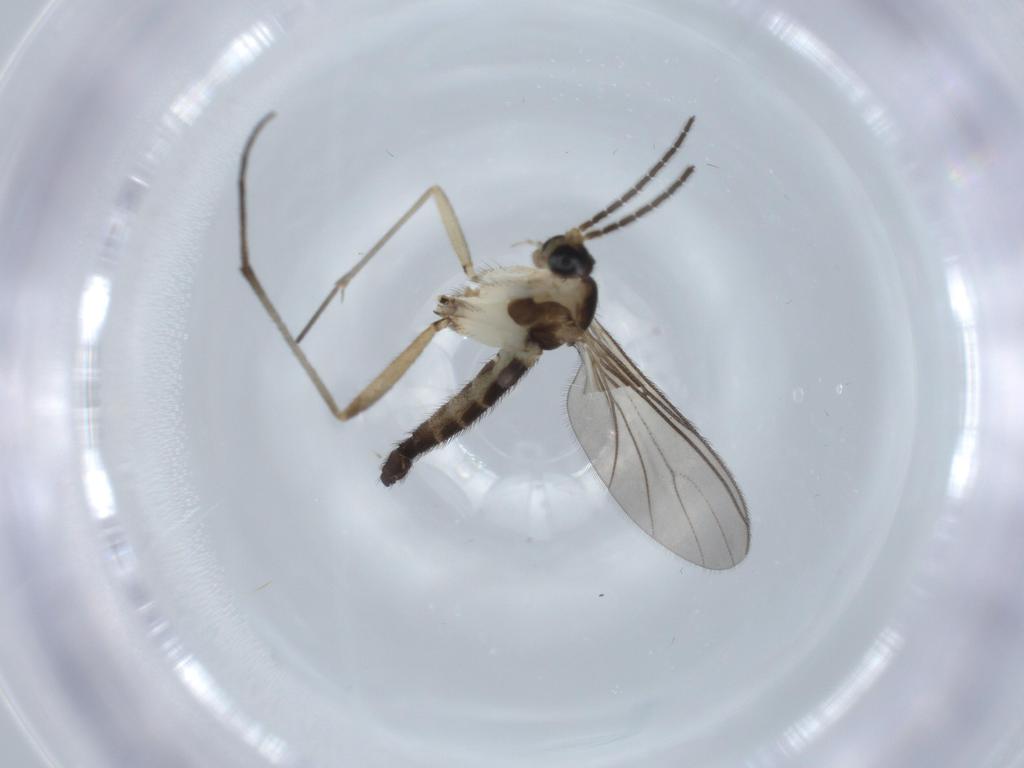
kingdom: Animalia
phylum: Arthropoda
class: Insecta
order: Diptera
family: Sciaridae
